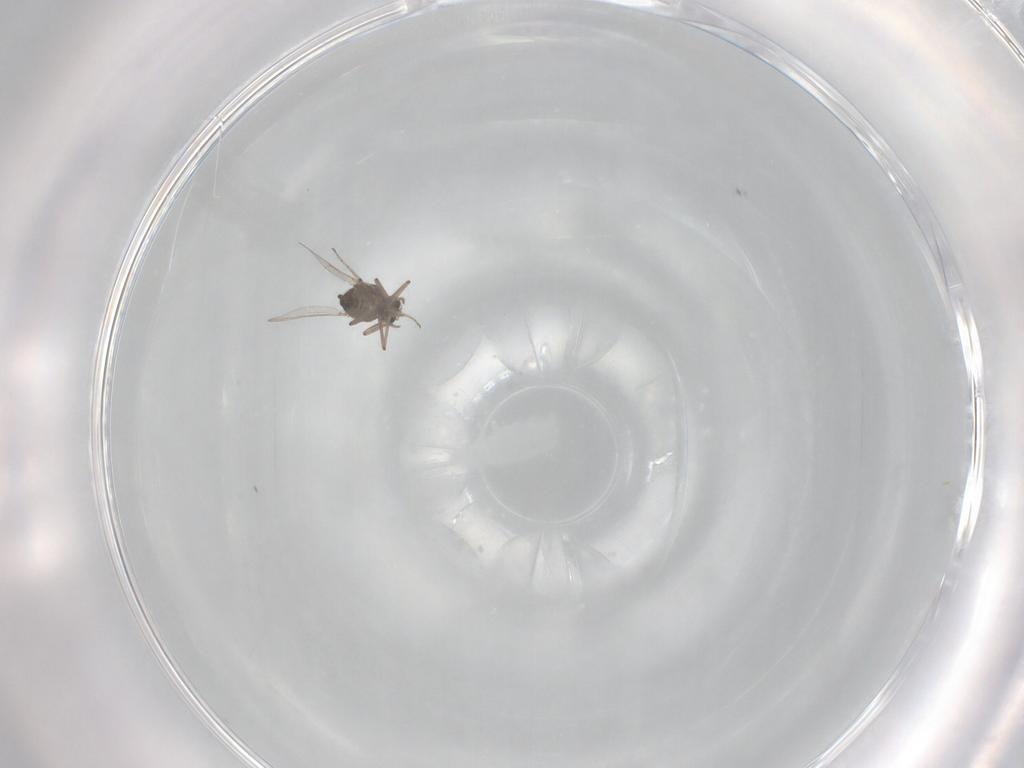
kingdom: Animalia
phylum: Arthropoda
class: Insecta
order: Diptera
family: Ceratopogonidae
